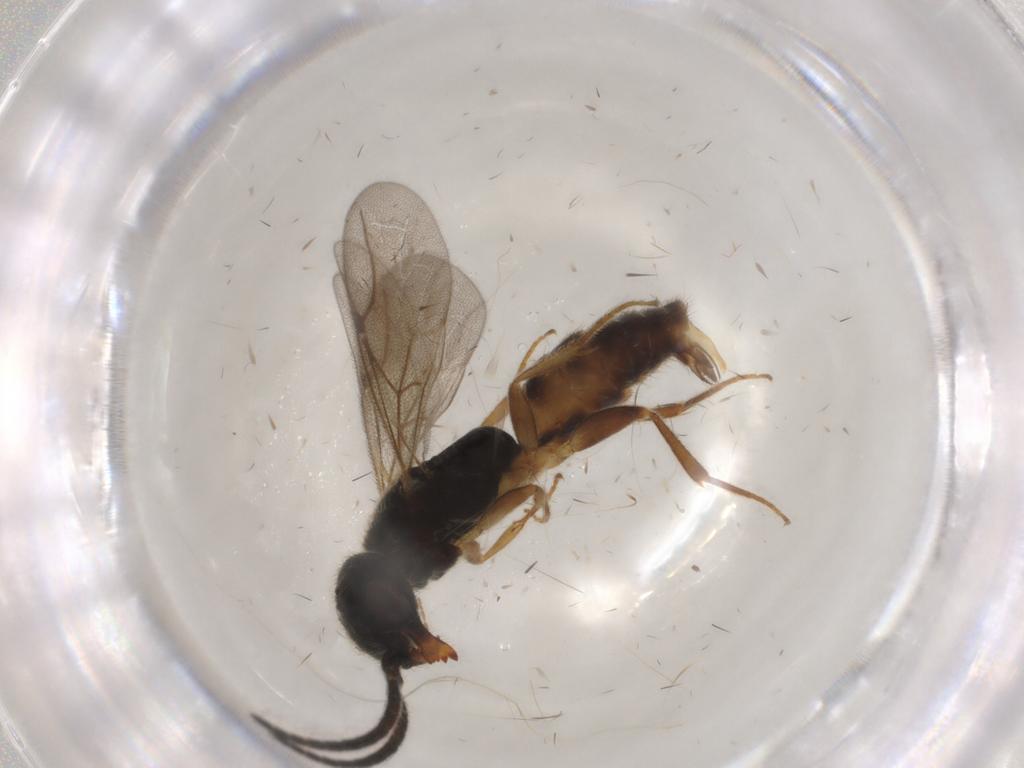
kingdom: Animalia
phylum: Arthropoda
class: Insecta
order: Hymenoptera
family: Bethylidae
